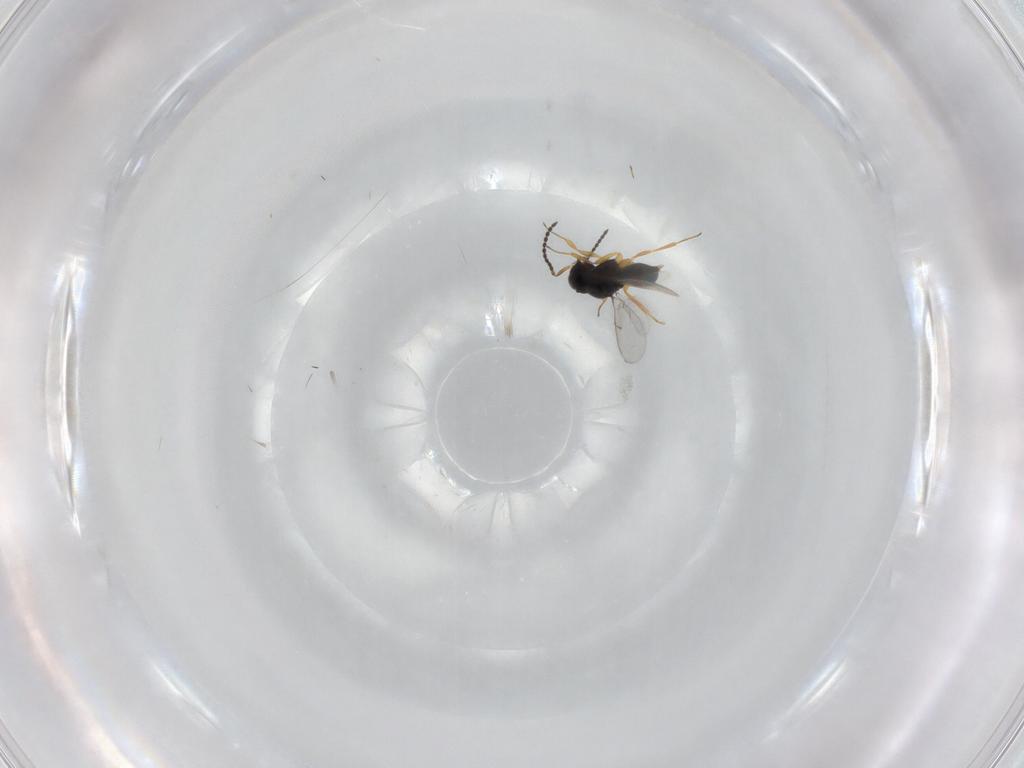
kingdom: Animalia
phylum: Arthropoda
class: Insecta
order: Hymenoptera
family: Scelionidae
